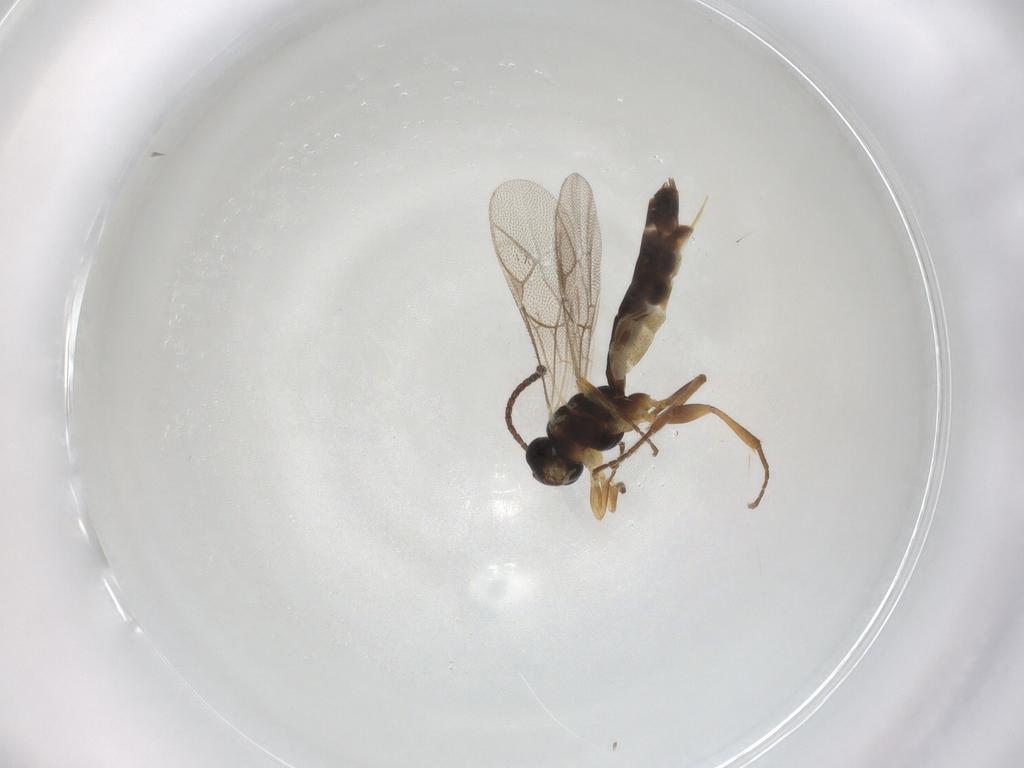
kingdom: Animalia
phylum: Arthropoda
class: Insecta
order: Hymenoptera
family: Ichneumonidae
